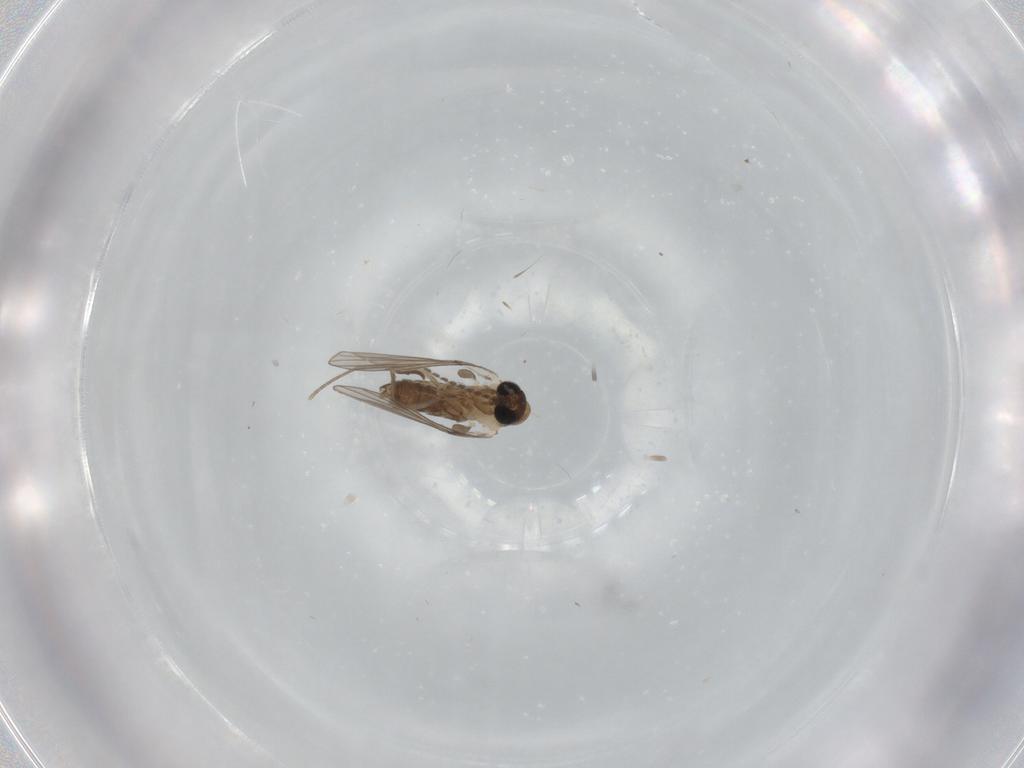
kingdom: Animalia
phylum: Arthropoda
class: Insecta
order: Diptera
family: Psychodidae
